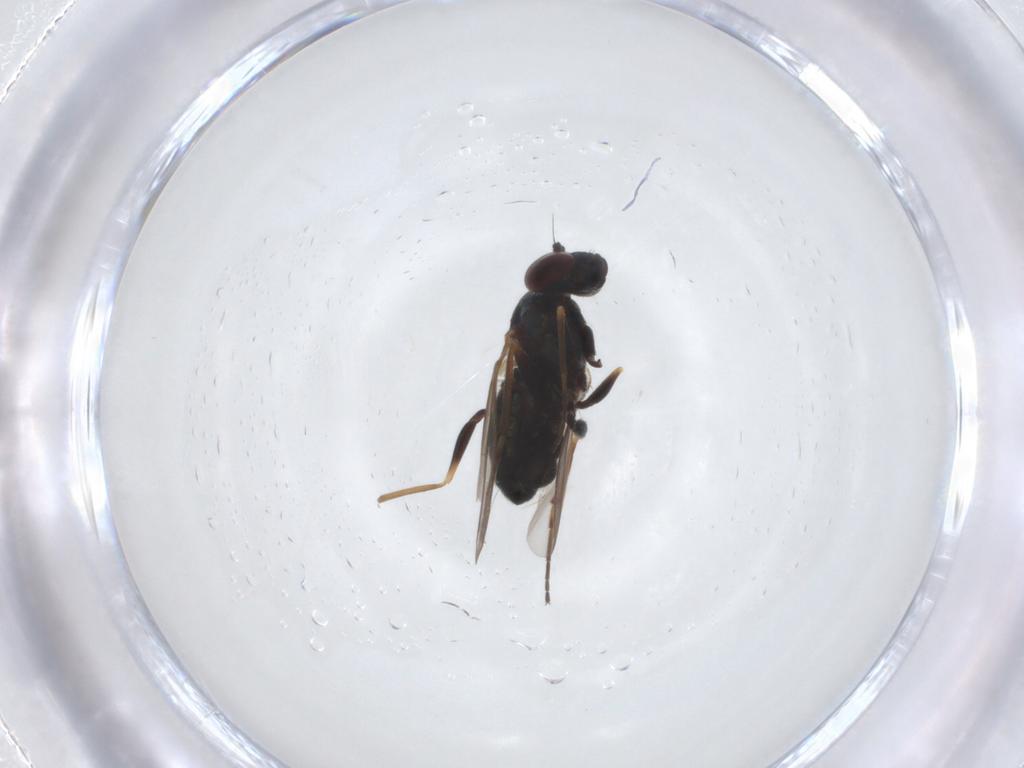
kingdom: Animalia
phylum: Arthropoda
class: Insecta
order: Diptera
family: Dolichopodidae
